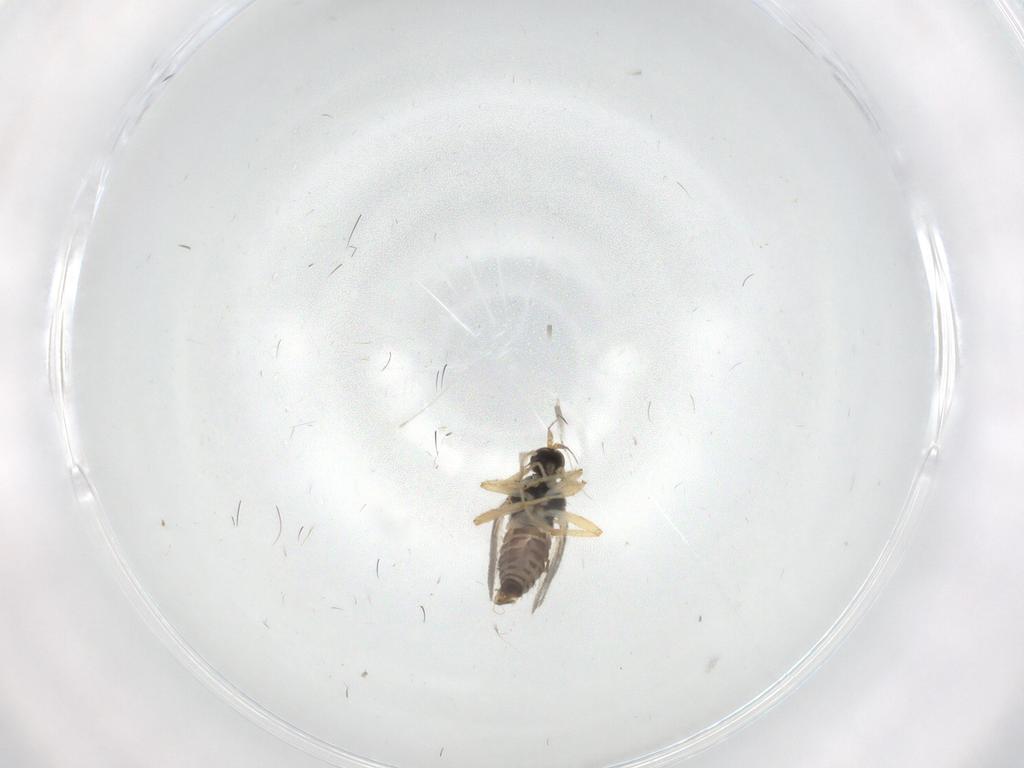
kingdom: Animalia
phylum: Arthropoda
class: Insecta
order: Diptera
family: Hybotidae
